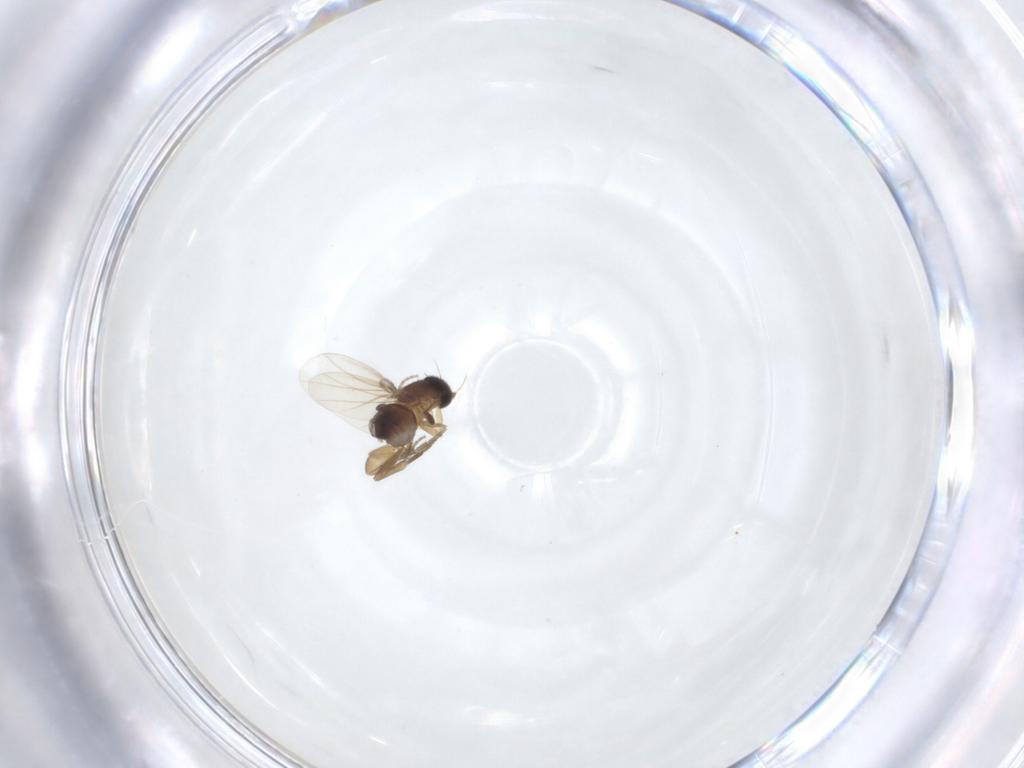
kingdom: Animalia
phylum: Arthropoda
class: Insecta
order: Diptera
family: Phoridae
